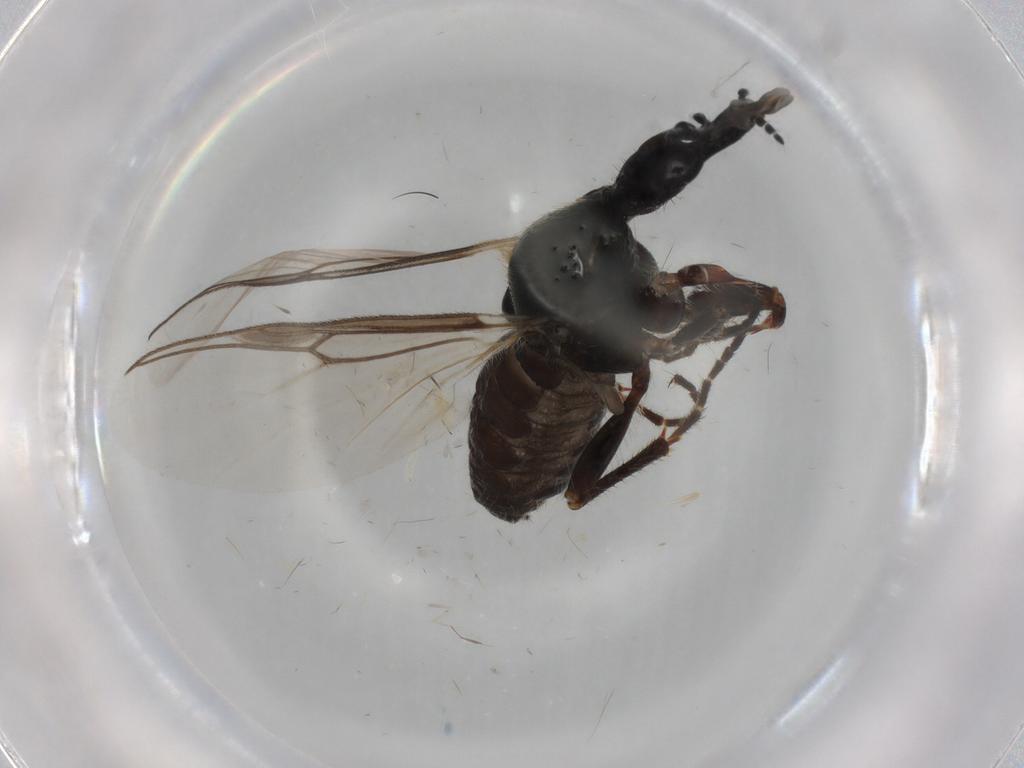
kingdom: Animalia
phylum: Arthropoda
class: Insecta
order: Diptera
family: Bibionidae
